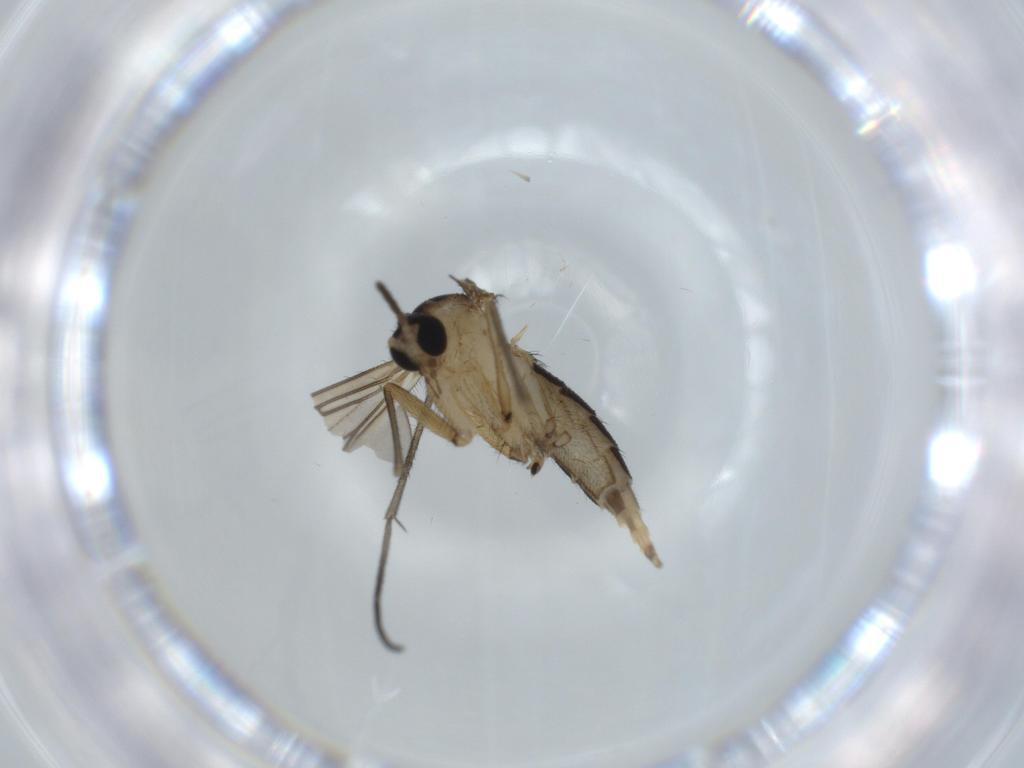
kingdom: Animalia
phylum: Arthropoda
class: Insecta
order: Diptera
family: Sciaridae
